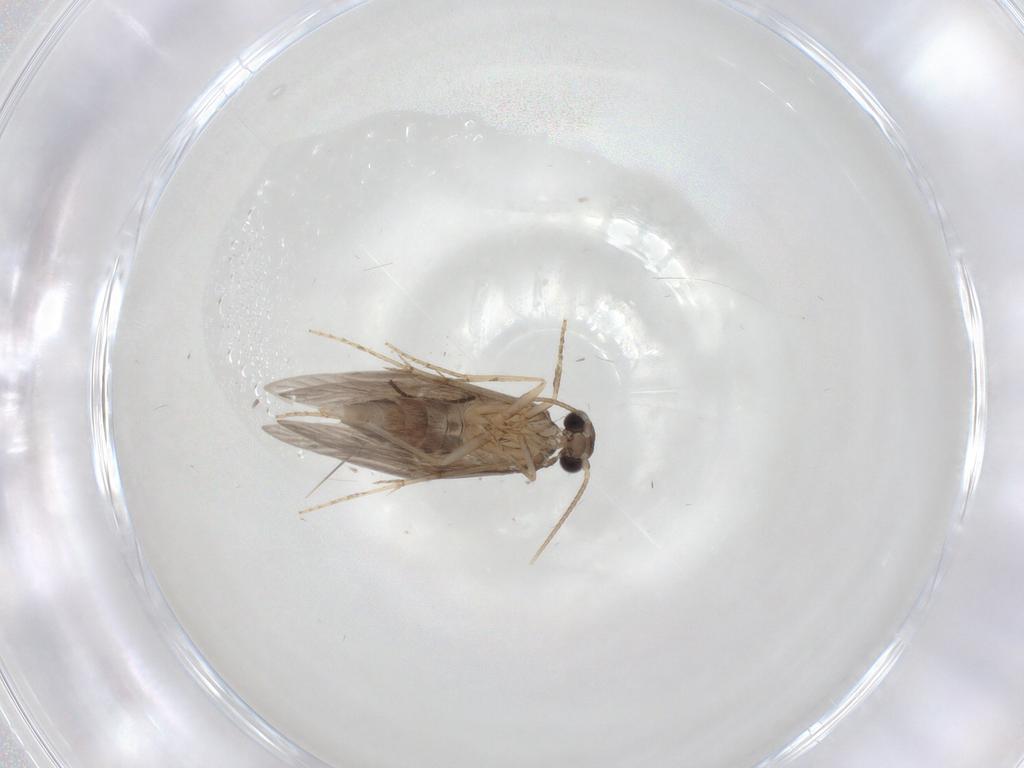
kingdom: Animalia
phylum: Arthropoda
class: Insecta
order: Trichoptera
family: Hydroptilidae
